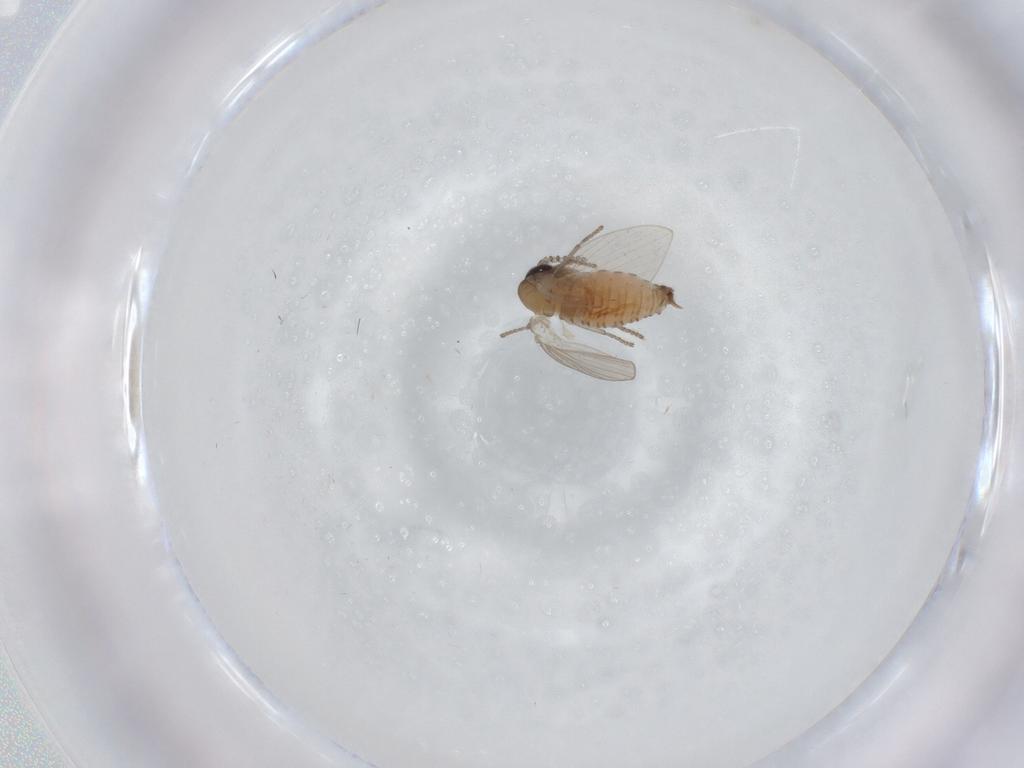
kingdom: Animalia
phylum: Arthropoda
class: Insecta
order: Diptera
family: Psychodidae
